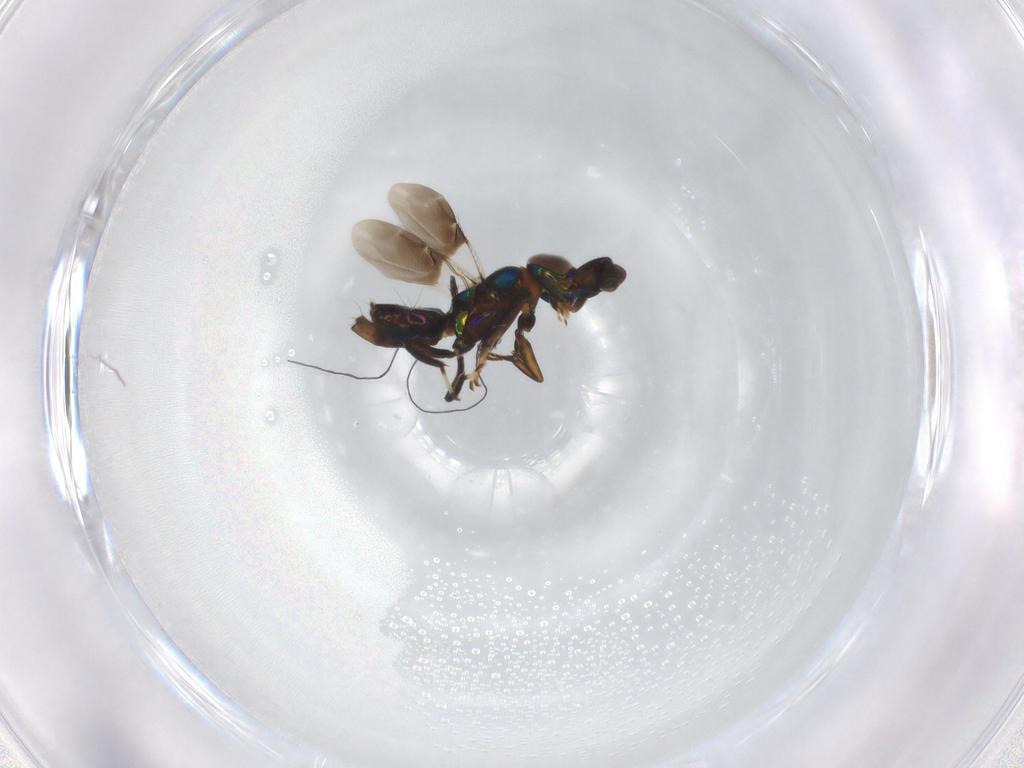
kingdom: Animalia
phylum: Arthropoda
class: Insecta
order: Hymenoptera
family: Encyrtidae
